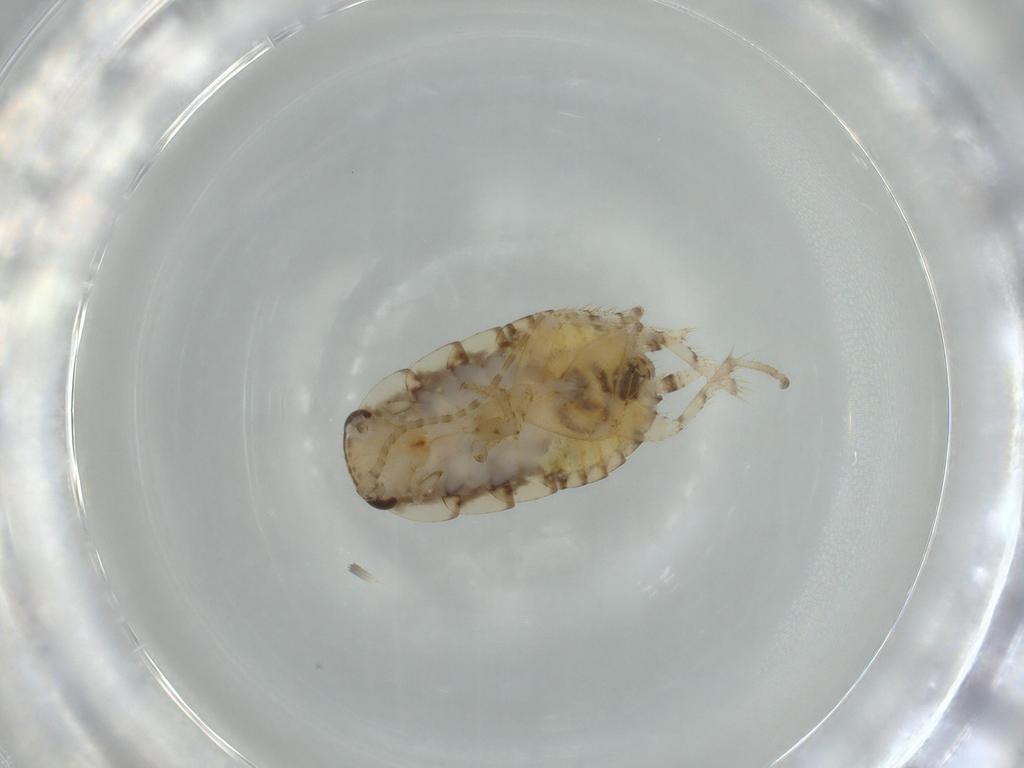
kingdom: Animalia
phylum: Arthropoda
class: Insecta
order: Blattodea
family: Ectobiidae
